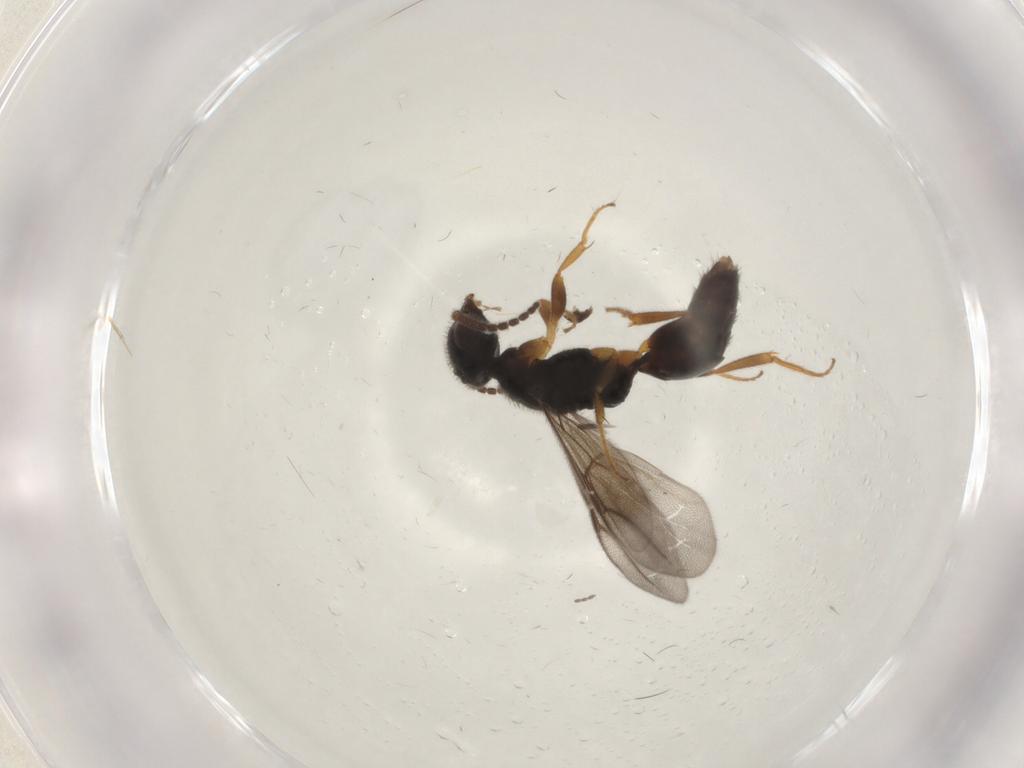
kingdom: Animalia
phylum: Arthropoda
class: Insecta
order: Hymenoptera
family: Bethylidae
